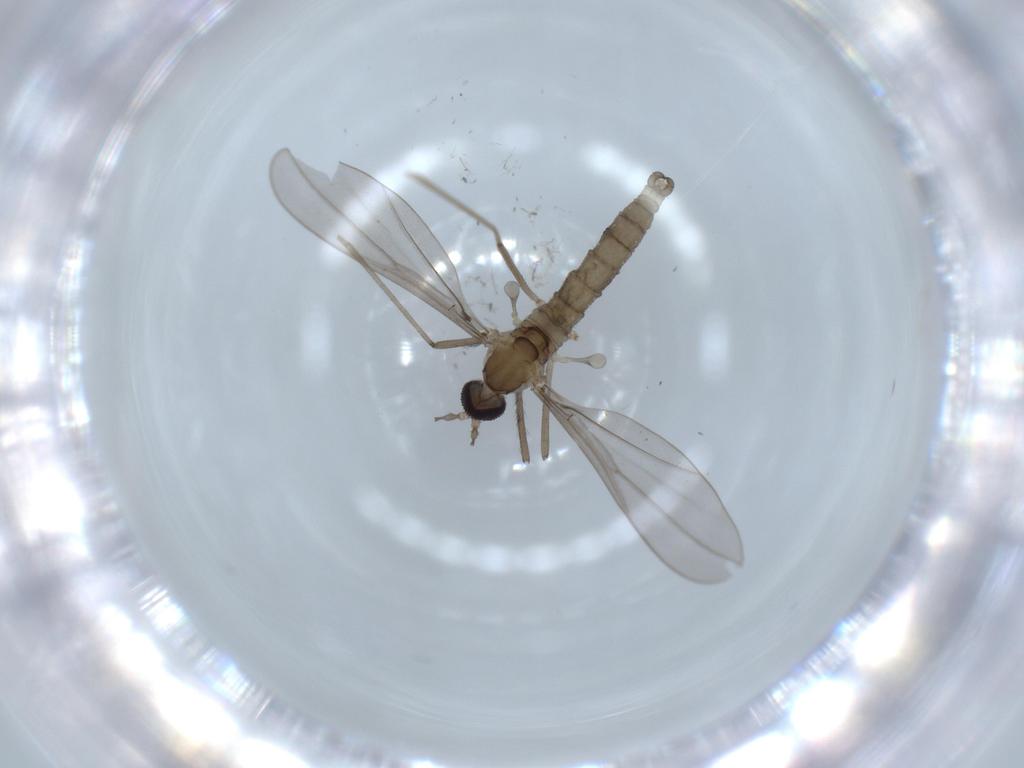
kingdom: Animalia
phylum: Arthropoda
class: Insecta
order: Diptera
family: Cecidomyiidae
